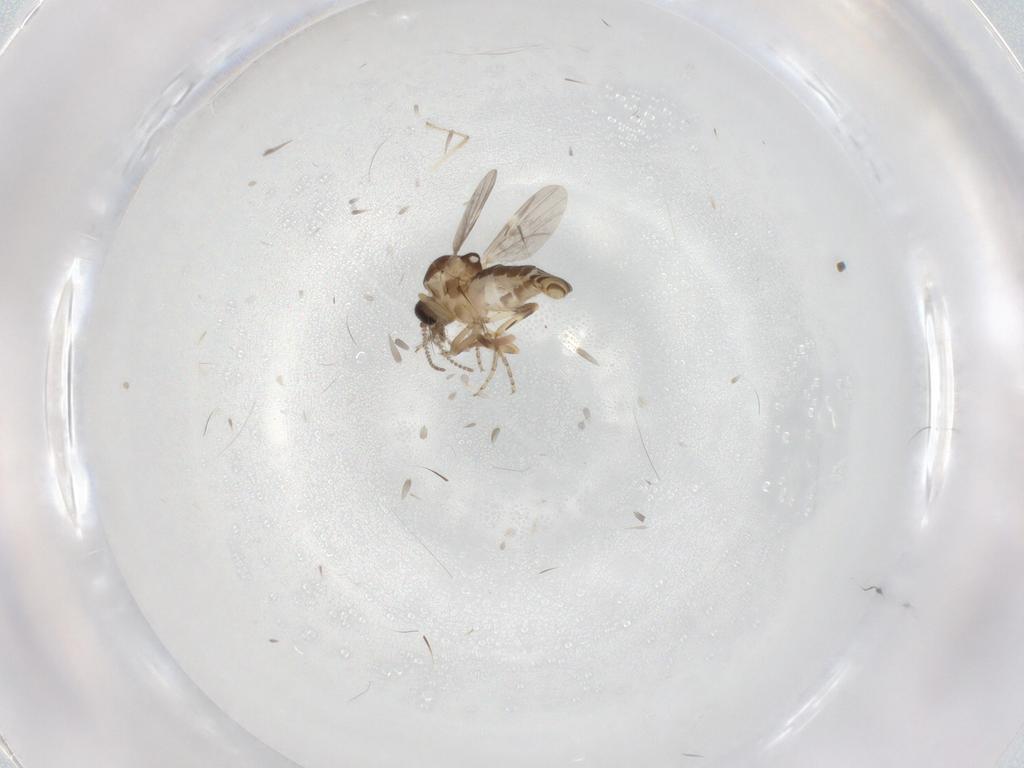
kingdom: Animalia
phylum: Arthropoda
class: Insecta
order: Diptera
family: Ceratopogonidae
